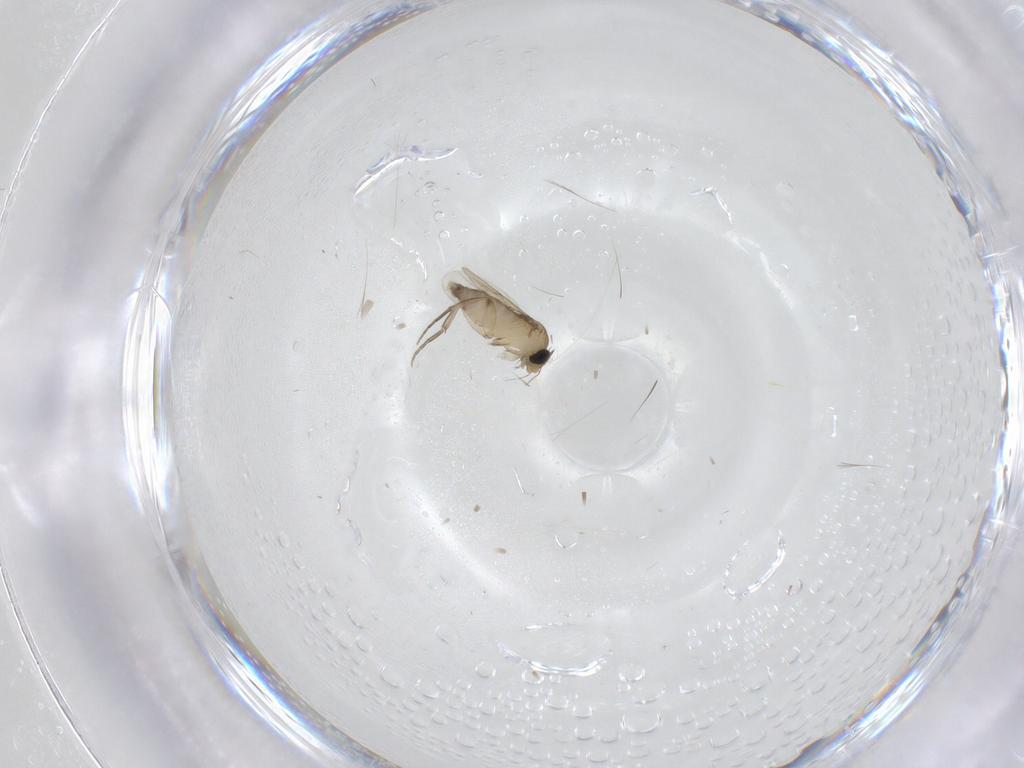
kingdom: Animalia
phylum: Arthropoda
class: Insecta
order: Diptera
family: Phoridae
